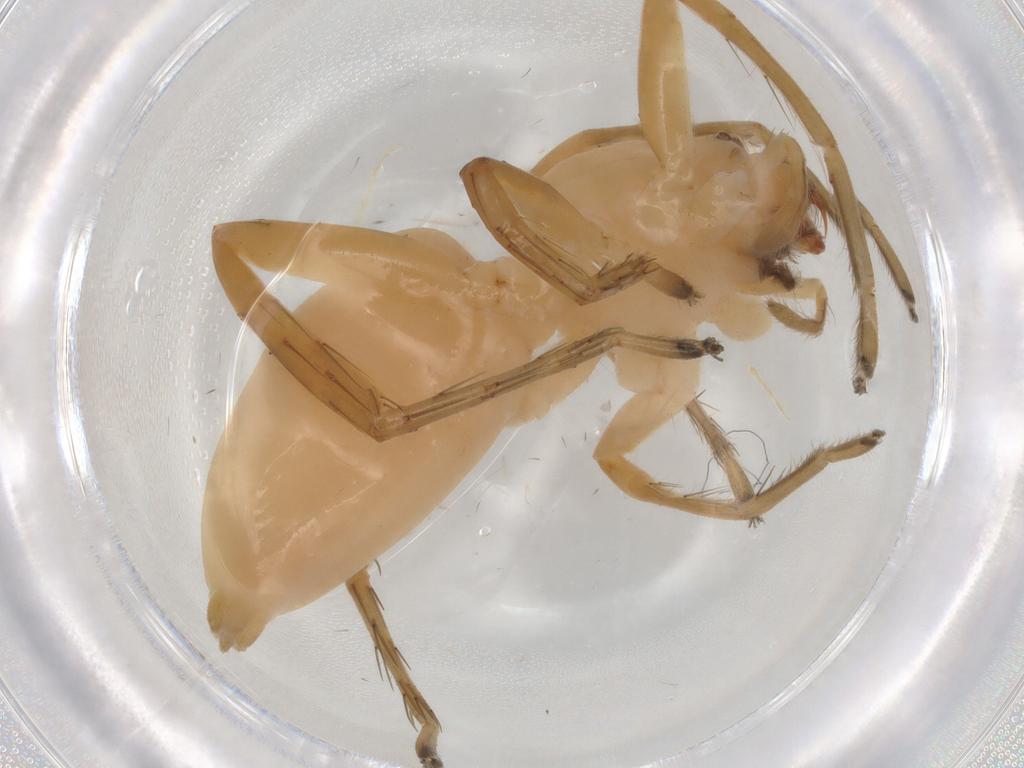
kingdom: Animalia
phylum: Arthropoda
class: Arachnida
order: Araneae
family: Anyphaenidae
